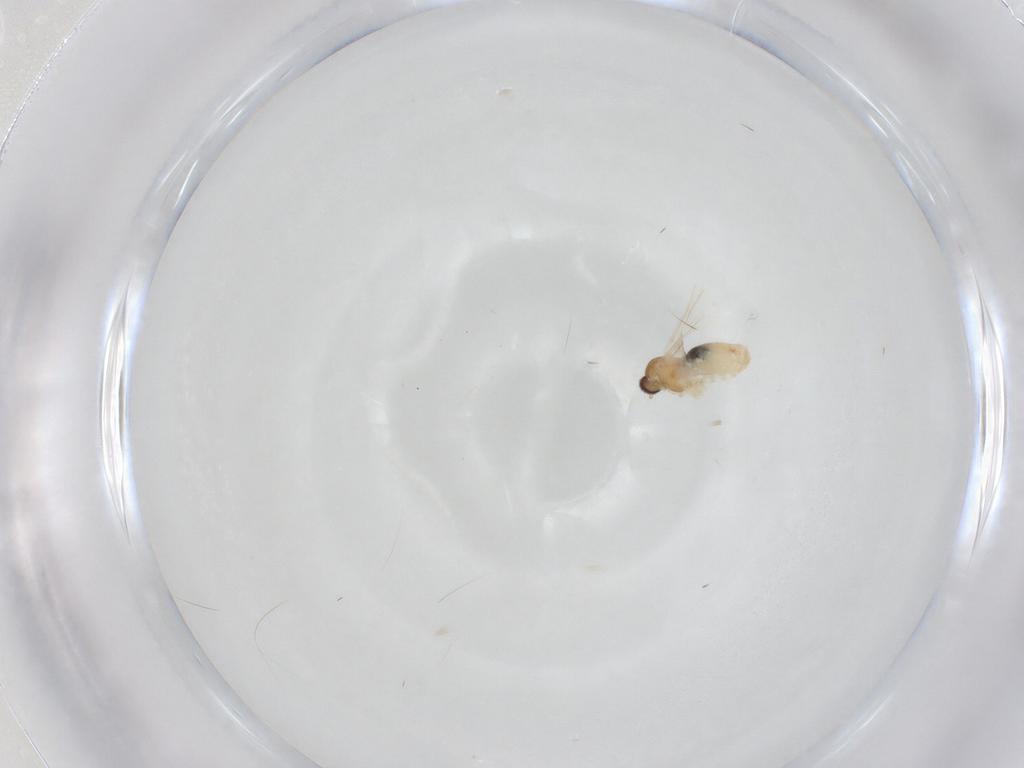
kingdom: Animalia
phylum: Arthropoda
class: Insecta
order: Diptera
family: Cecidomyiidae
